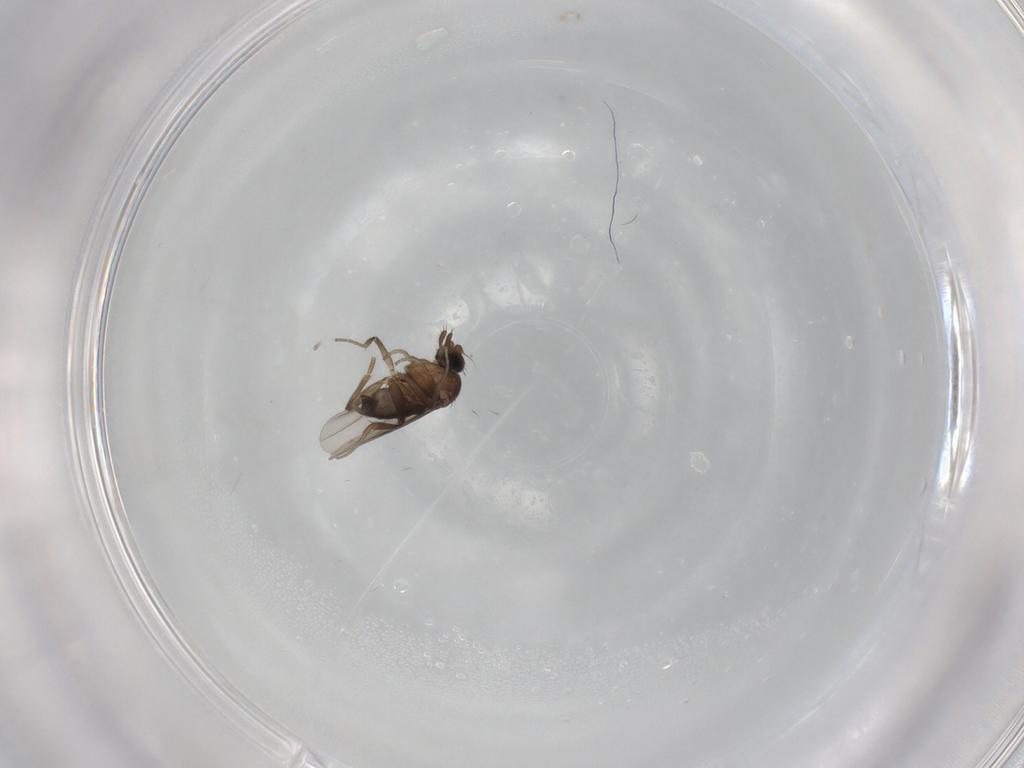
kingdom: Animalia
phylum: Arthropoda
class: Insecta
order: Diptera
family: Phoridae
